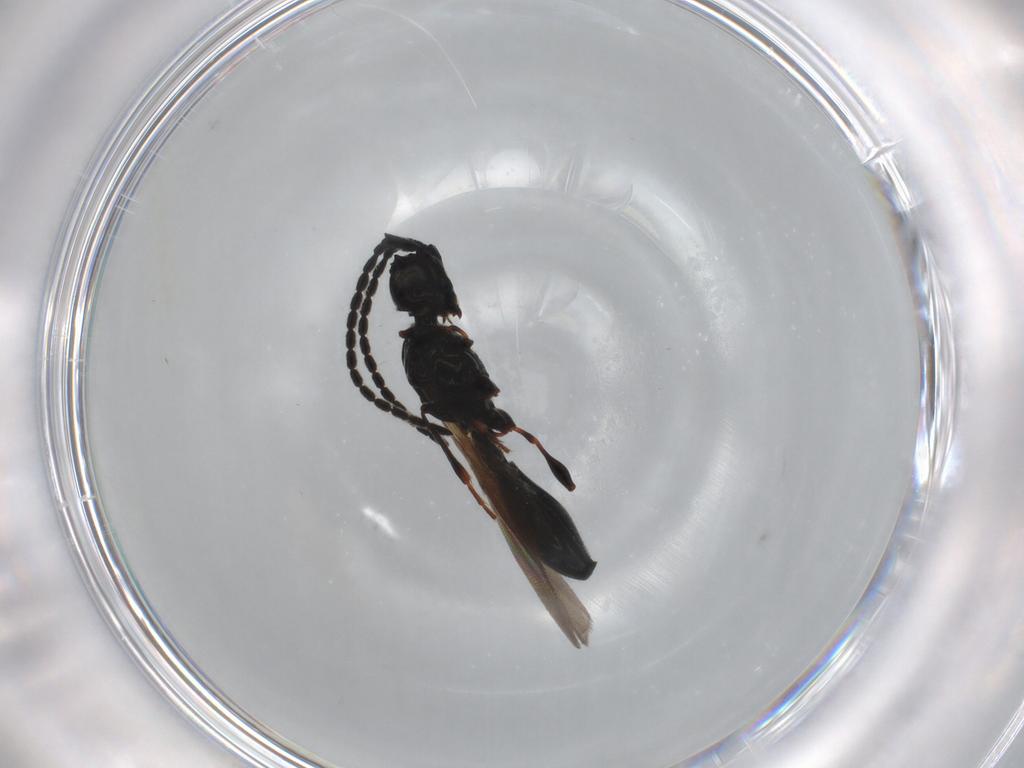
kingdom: Animalia
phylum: Arthropoda
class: Insecta
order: Hymenoptera
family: Diapriidae
